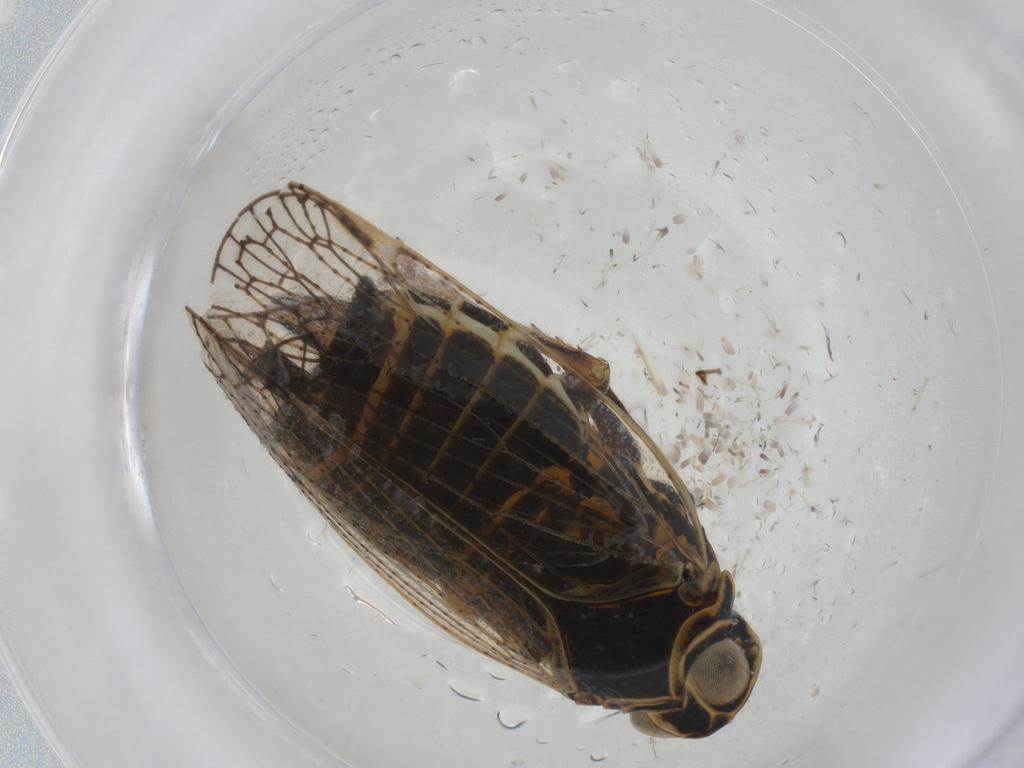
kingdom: Animalia
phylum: Arthropoda
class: Insecta
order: Hemiptera
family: Cixiidae
